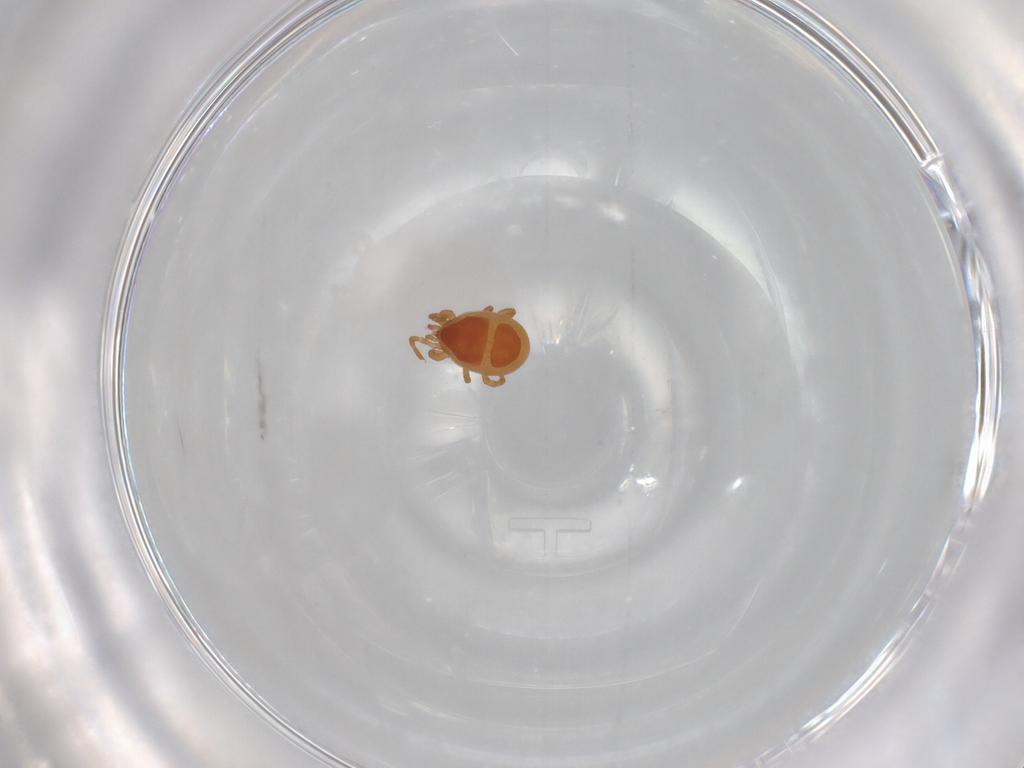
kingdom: Animalia
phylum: Arthropoda
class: Arachnida
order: Mesostigmata
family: Parasitidae
